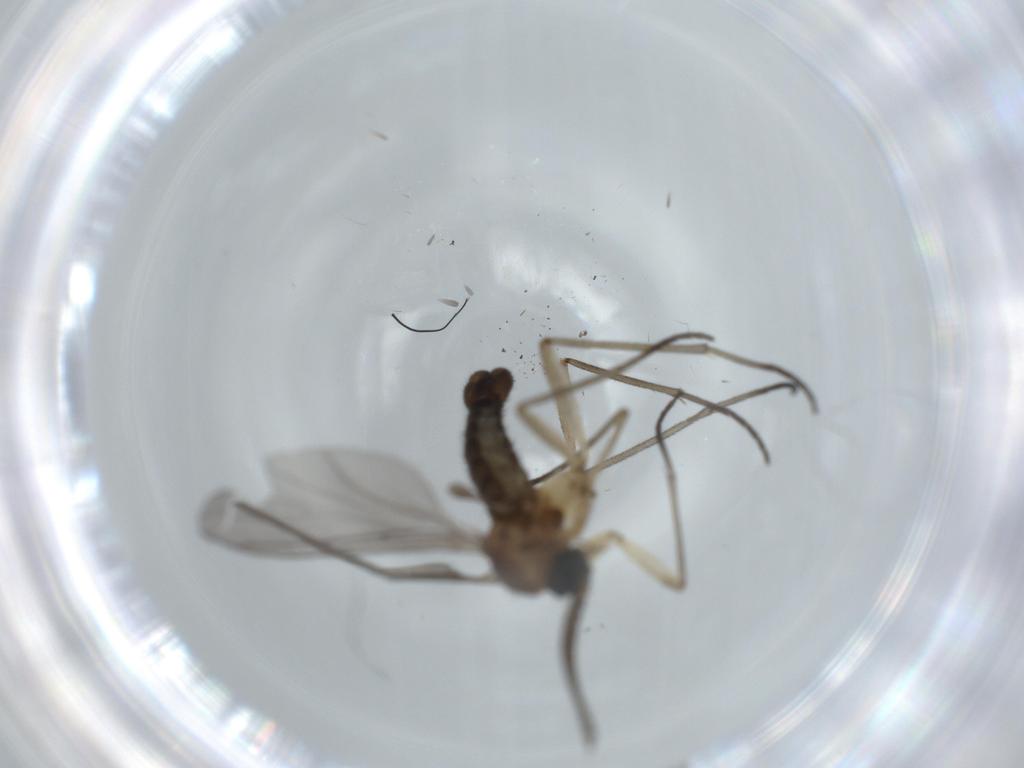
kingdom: Animalia
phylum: Arthropoda
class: Insecta
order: Diptera
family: Sciaridae
